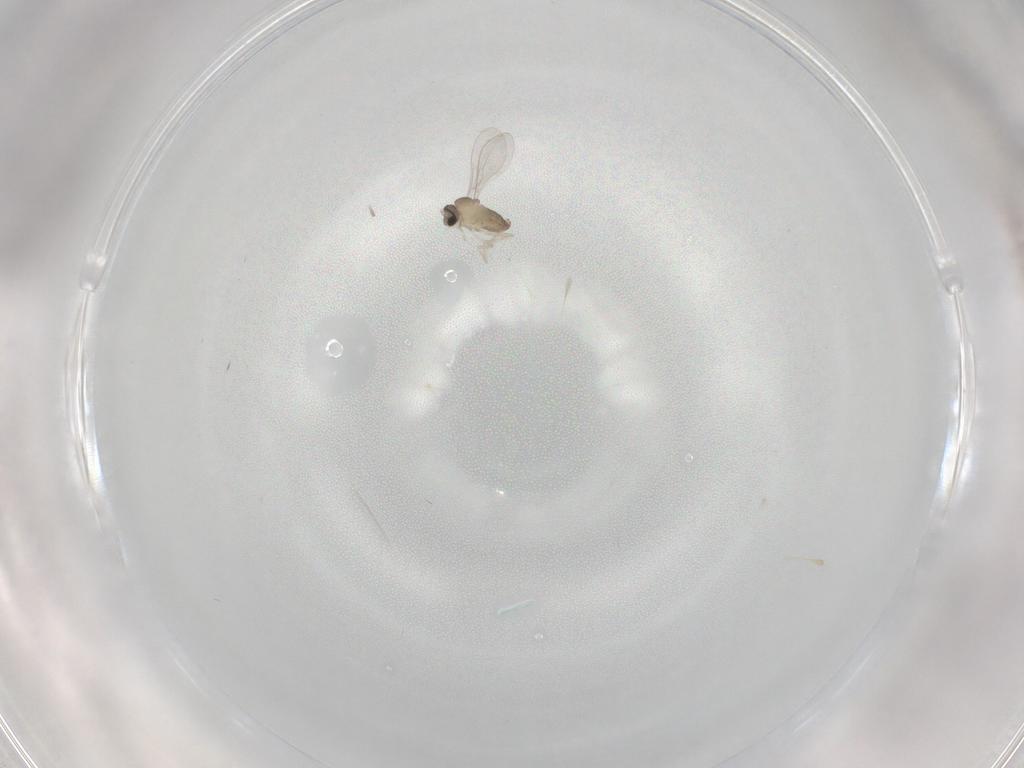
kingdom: Animalia
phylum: Arthropoda
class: Insecta
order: Diptera
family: Cecidomyiidae
